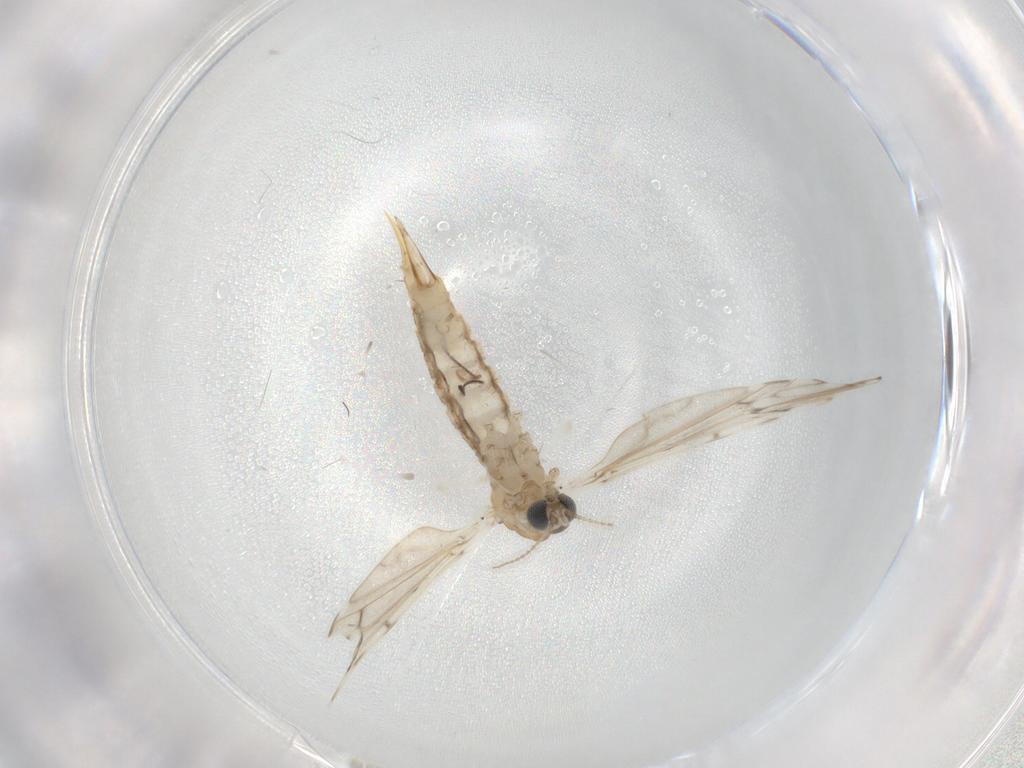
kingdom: Animalia
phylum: Arthropoda
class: Insecta
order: Diptera
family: Limoniidae
